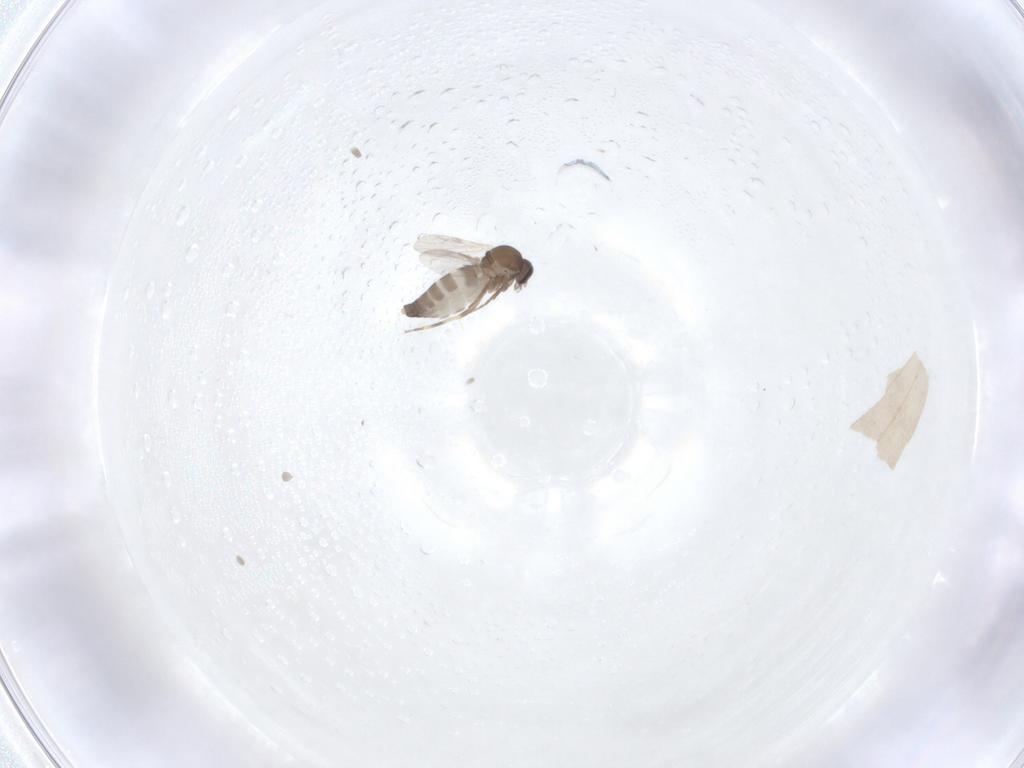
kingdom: Animalia
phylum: Arthropoda
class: Insecta
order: Diptera
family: Ceratopogonidae
